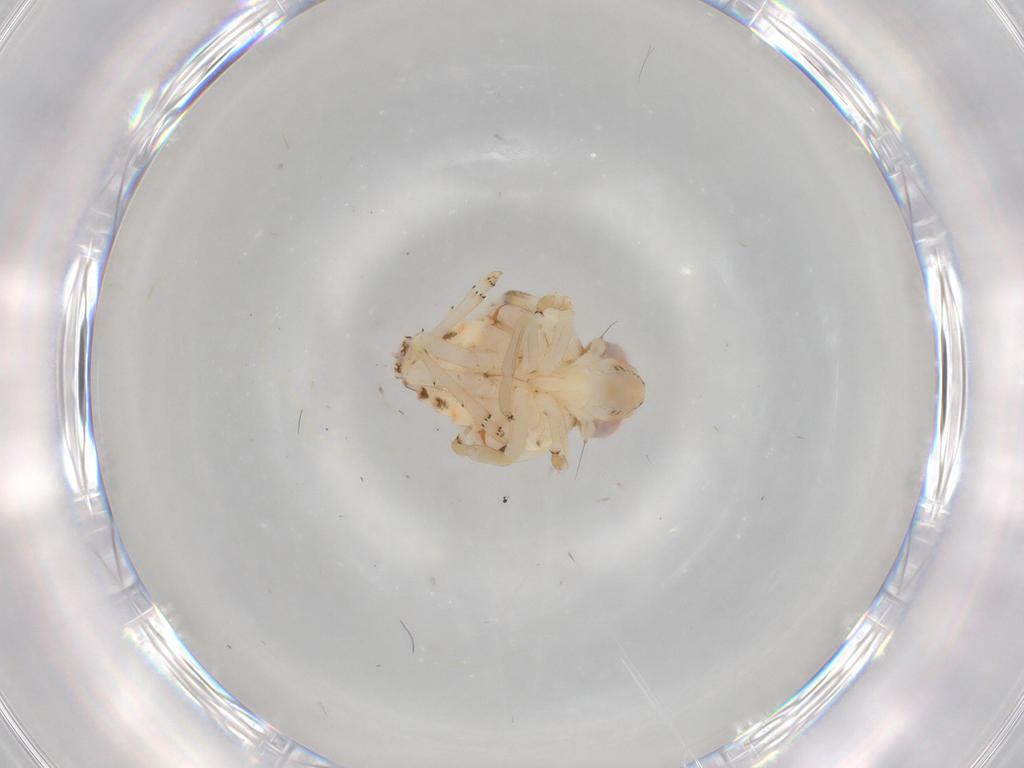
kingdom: Animalia
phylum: Arthropoda
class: Insecta
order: Hemiptera
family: Nogodinidae
